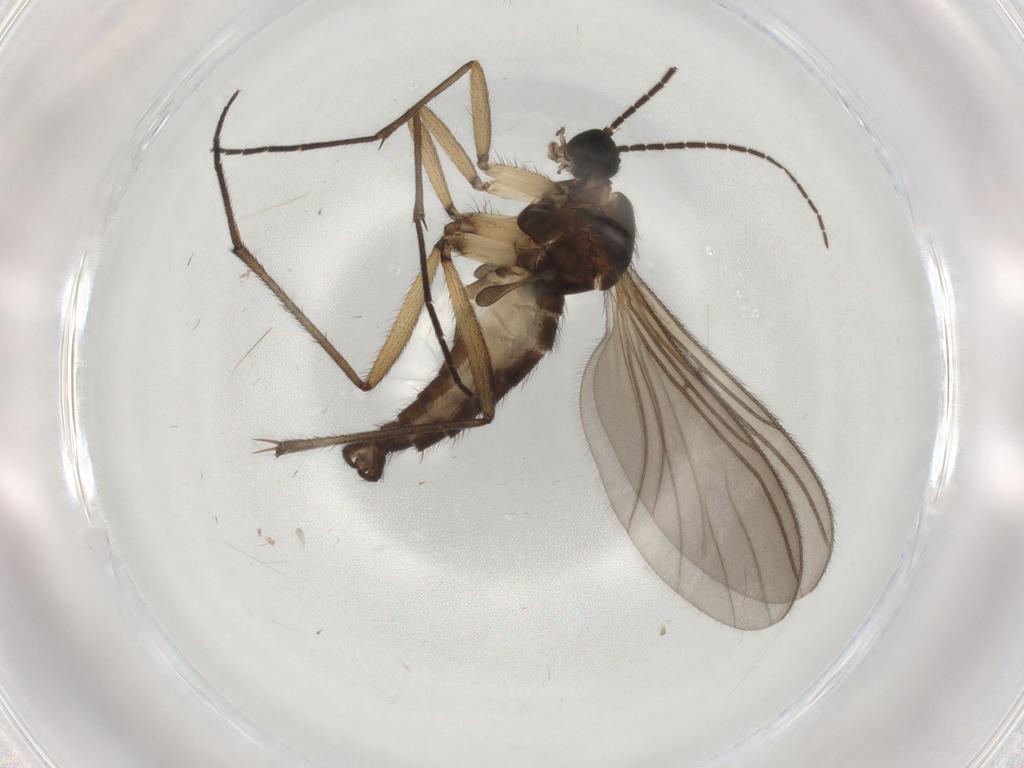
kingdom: Animalia
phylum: Arthropoda
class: Insecta
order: Diptera
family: Sciaridae
